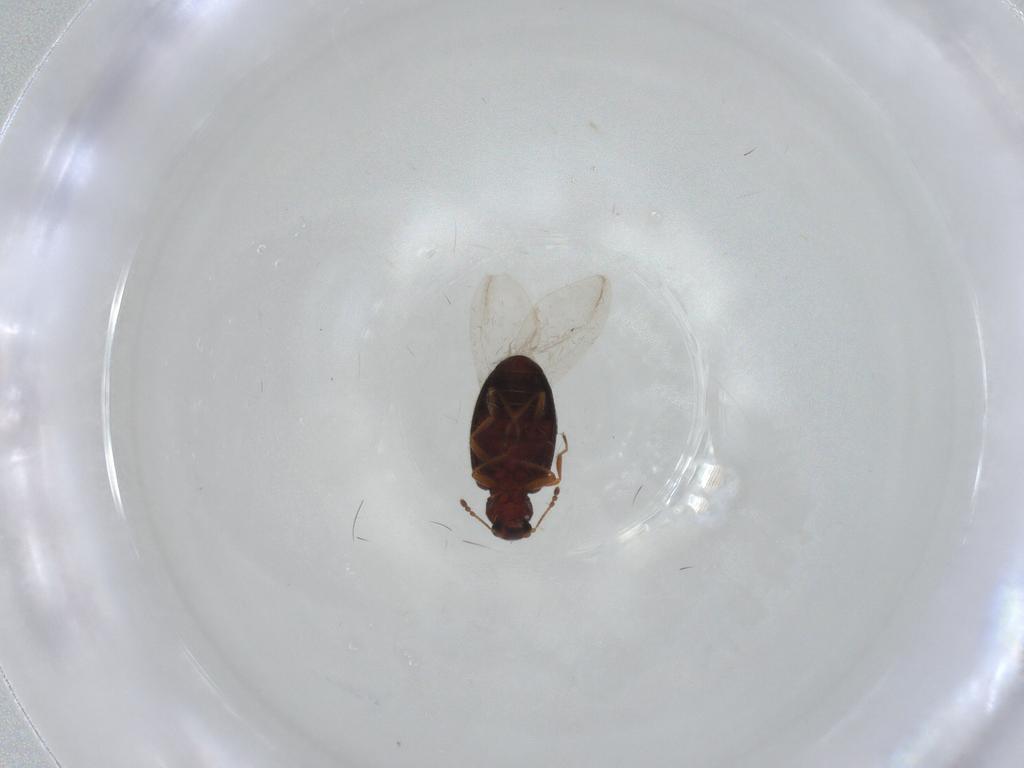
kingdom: Animalia
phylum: Arthropoda
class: Insecta
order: Coleoptera
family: Latridiidae
